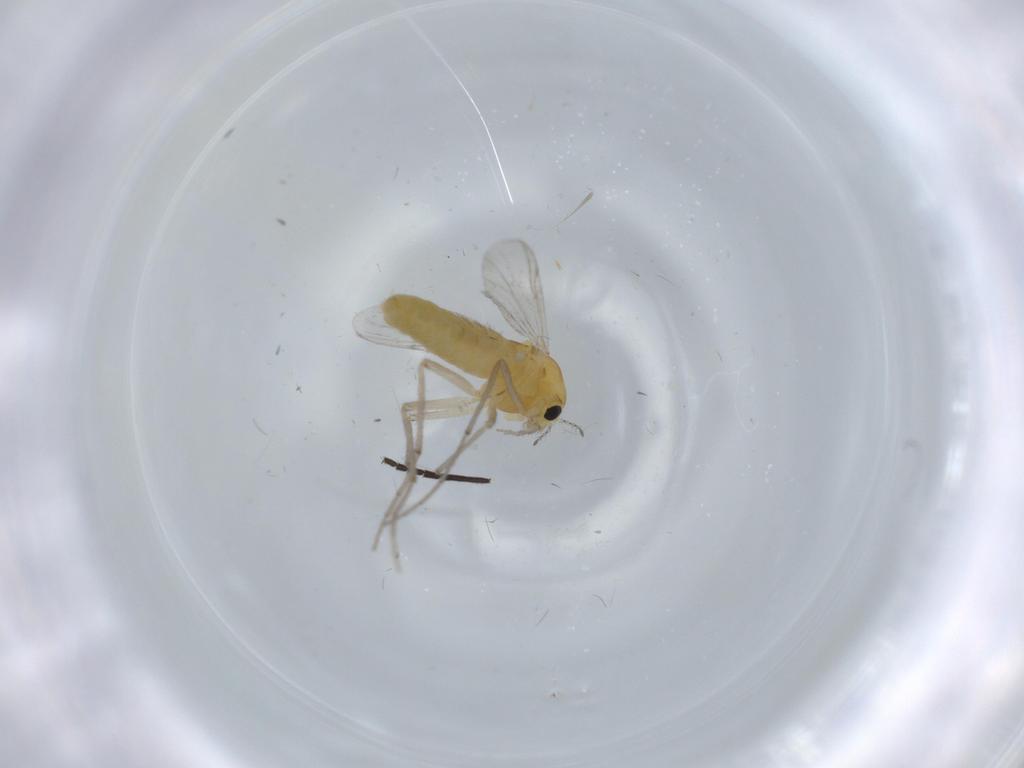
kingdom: Animalia
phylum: Arthropoda
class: Insecta
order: Diptera
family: Chironomidae
